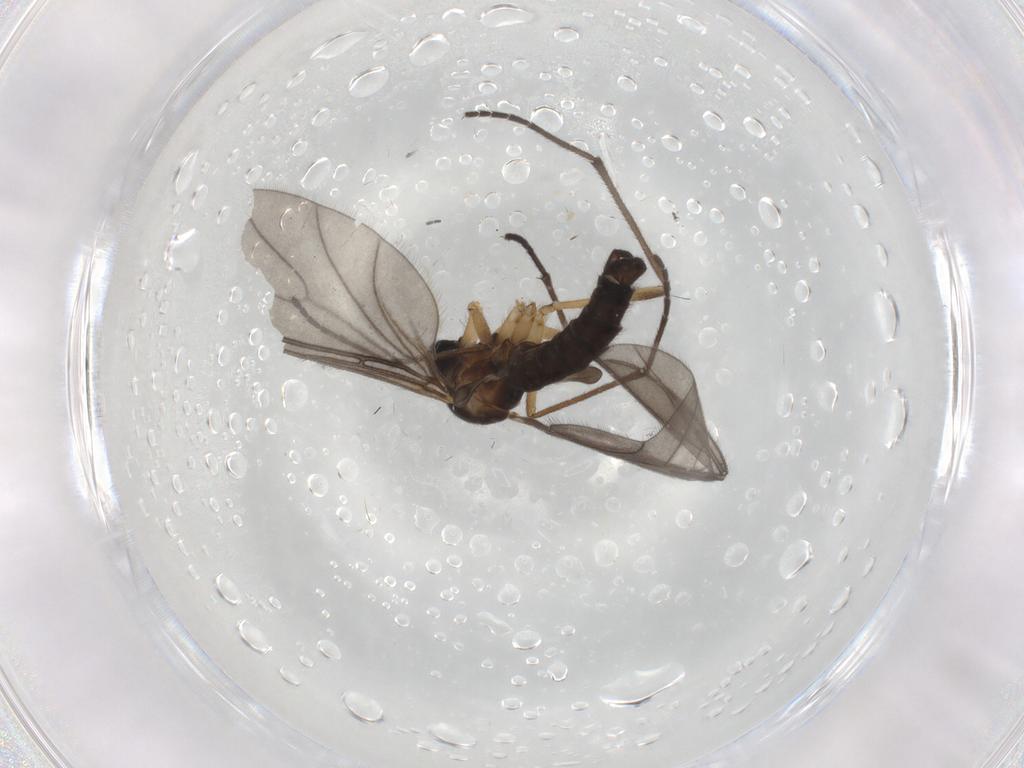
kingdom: Animalia
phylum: Arthropoda
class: Insecta
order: Diptera
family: Sciaridae
